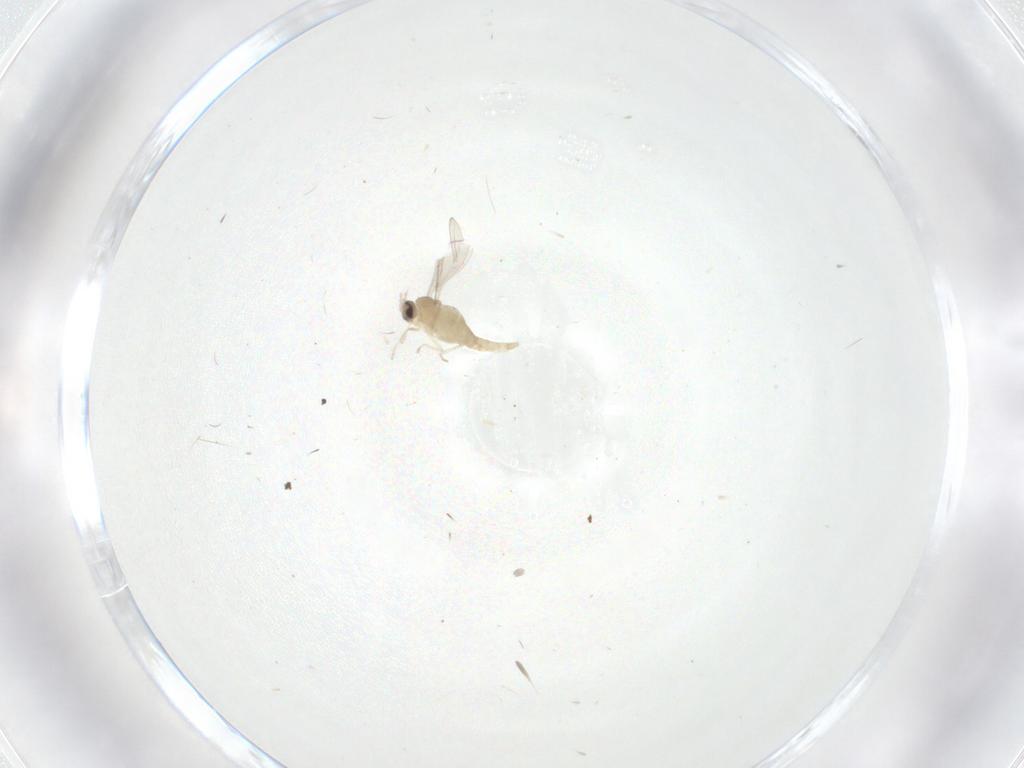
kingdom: Animalia
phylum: Arthropoda
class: Insecta
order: Diptera
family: Cecidomyiidae
